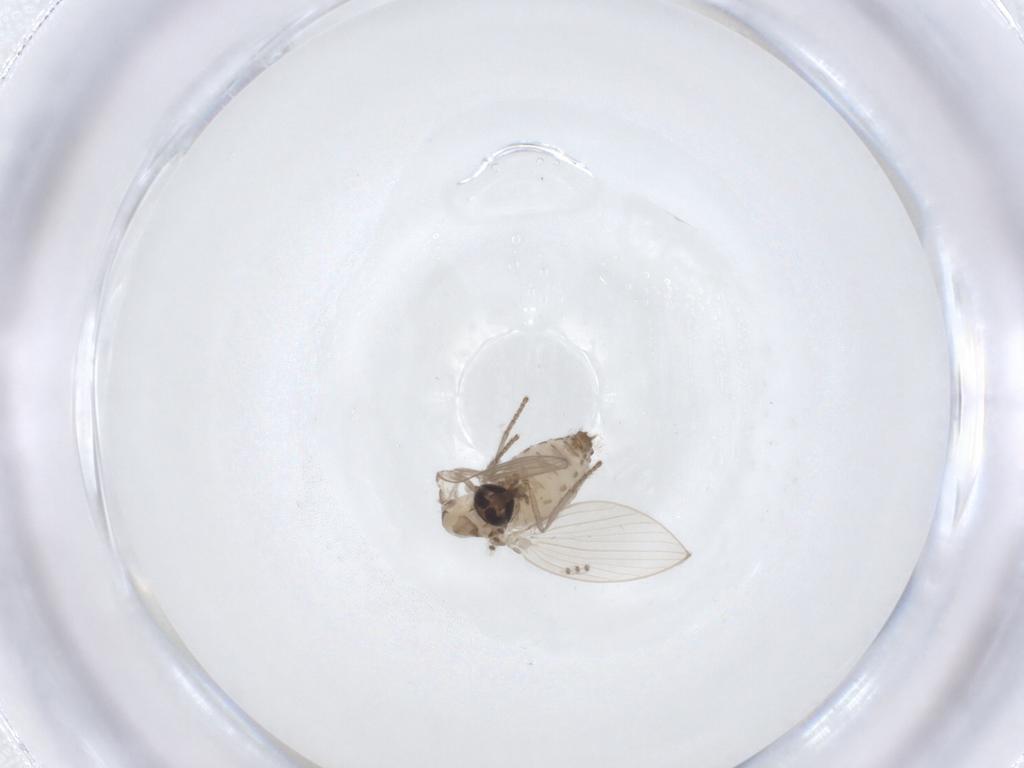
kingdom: Animalia
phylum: Arthropoda
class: Insecta
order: Diptera
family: Psychodidae
